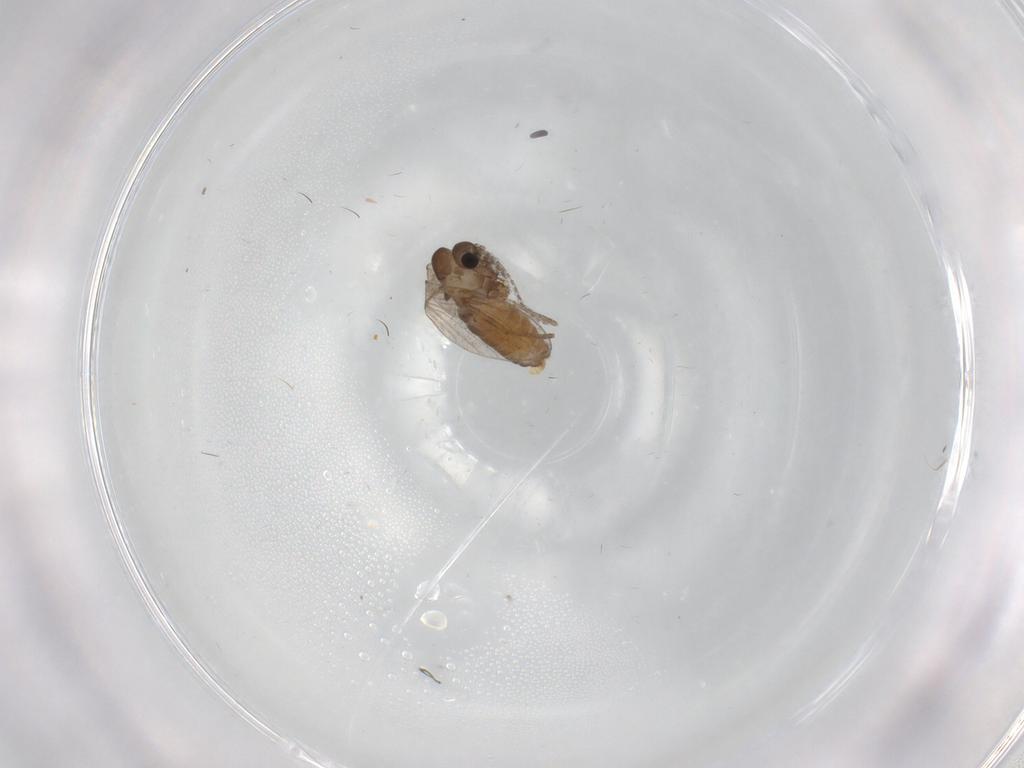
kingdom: Animalia
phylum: Arthropoda
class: Insecta
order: Diptera
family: Cecidomyiidae
